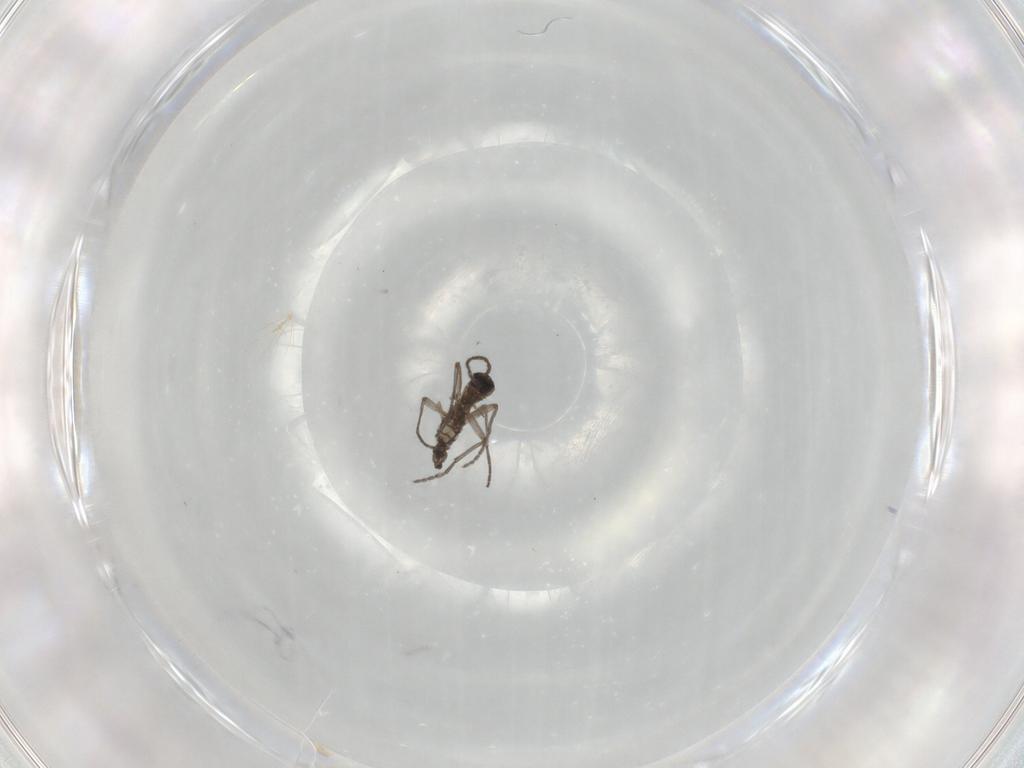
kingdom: Animalia
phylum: Arthropoda
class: Insecta
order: Diptera
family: Sciaridae
